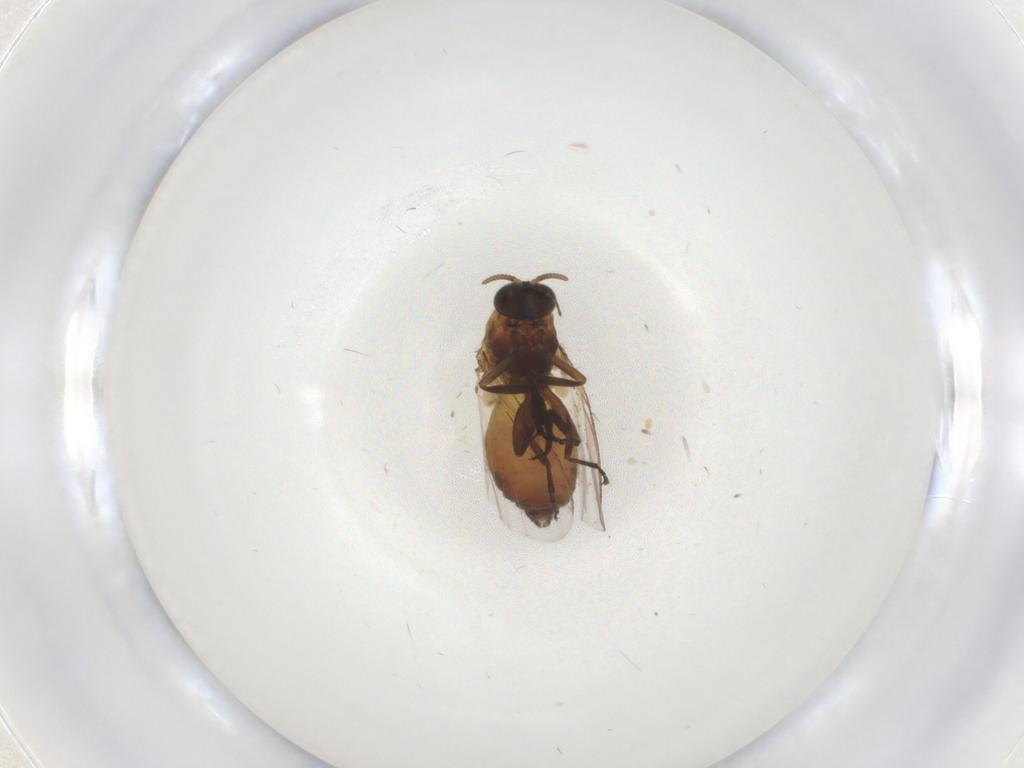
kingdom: Animalia
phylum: Arthropoda
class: Insecta
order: Diptera
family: Simuliidae
